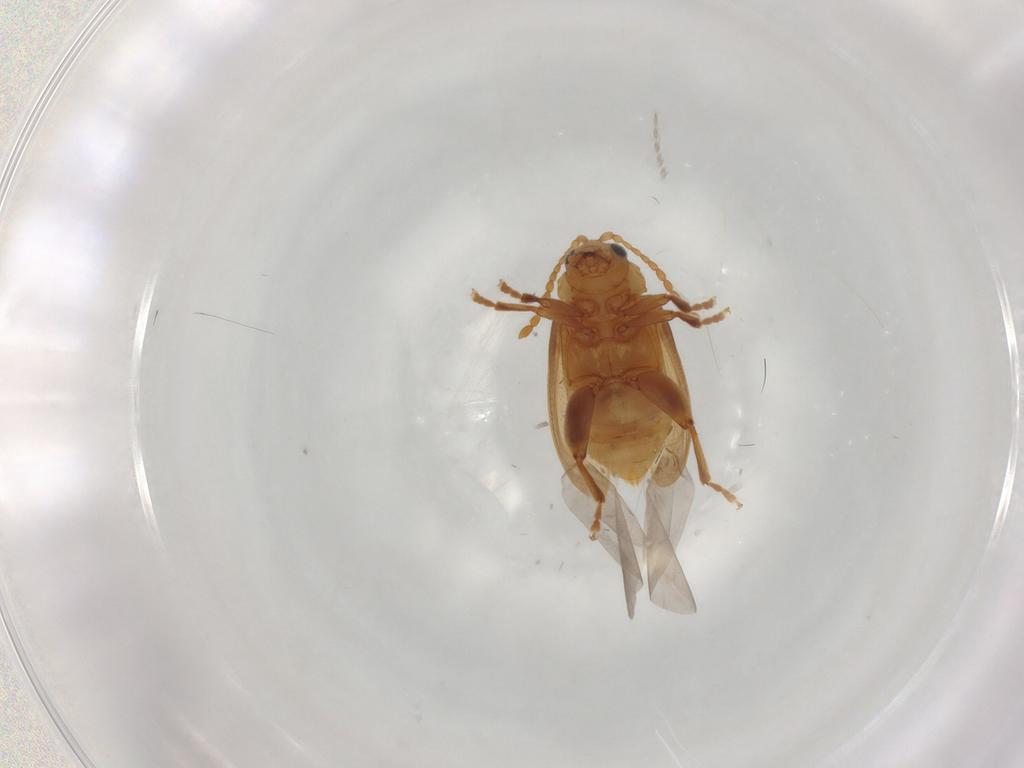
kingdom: Animalia
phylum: Arthropoda
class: Insecta
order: Coleoptera
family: Chrysomelidae
